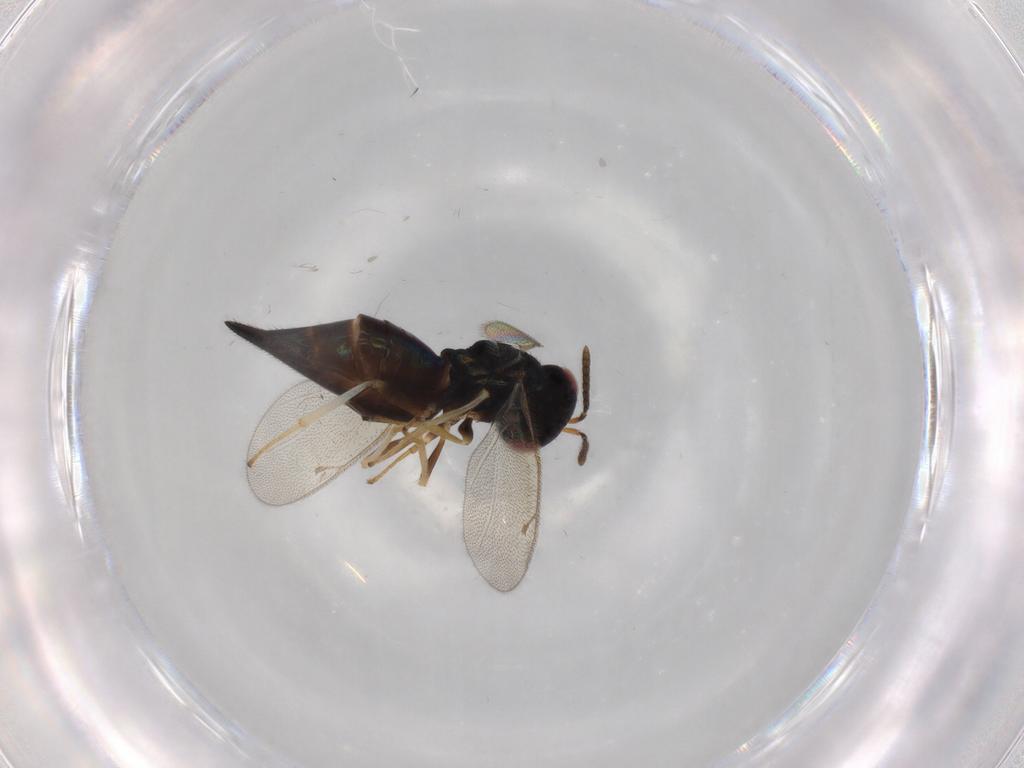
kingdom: Animalia
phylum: Arthropoda
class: Insecta
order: Hymenoptera
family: Pteromalidae
